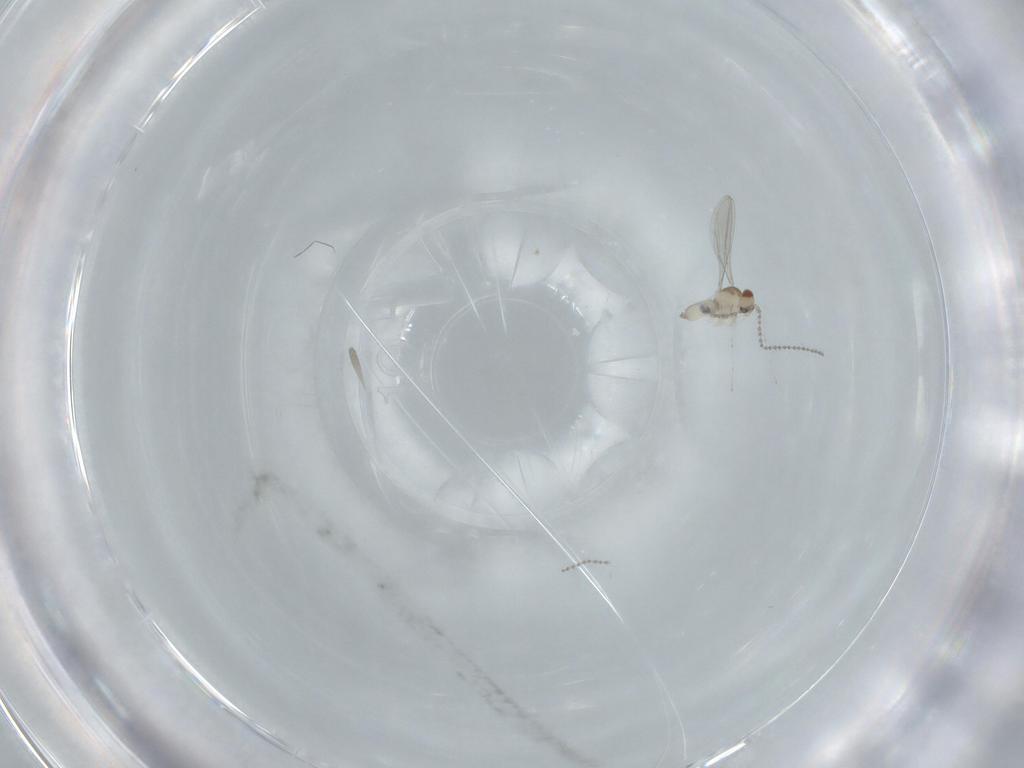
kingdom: Animalia
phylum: Arthropoda
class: Insecta
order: Diptera
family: Cecidomyiidae
